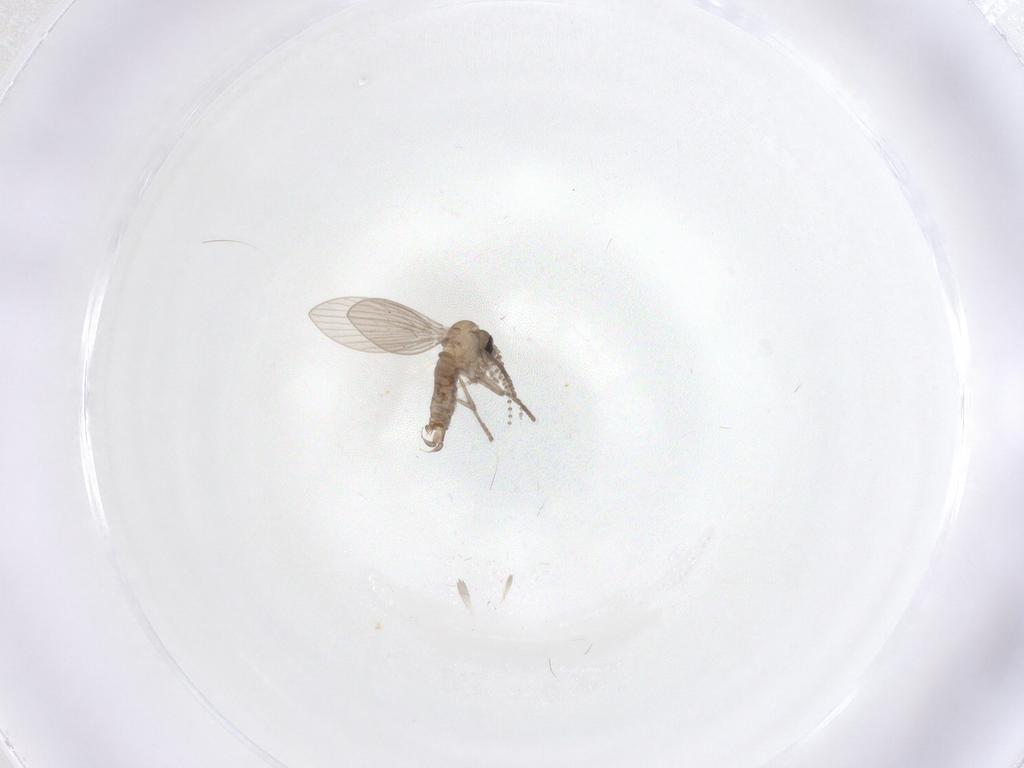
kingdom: Animalia
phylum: Arthropoda
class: Insecta
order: Diptera
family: Psychodidae
